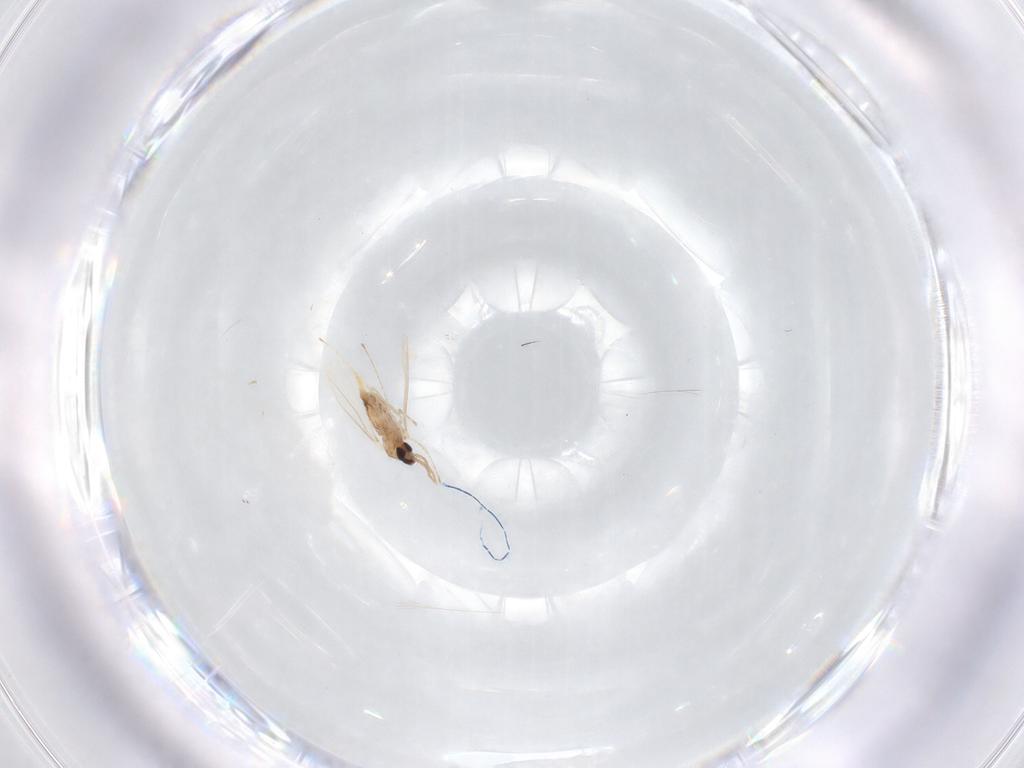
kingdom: Animalia
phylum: Arthropoda
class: Insecta
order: Diptera
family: Cecidomyiidae
